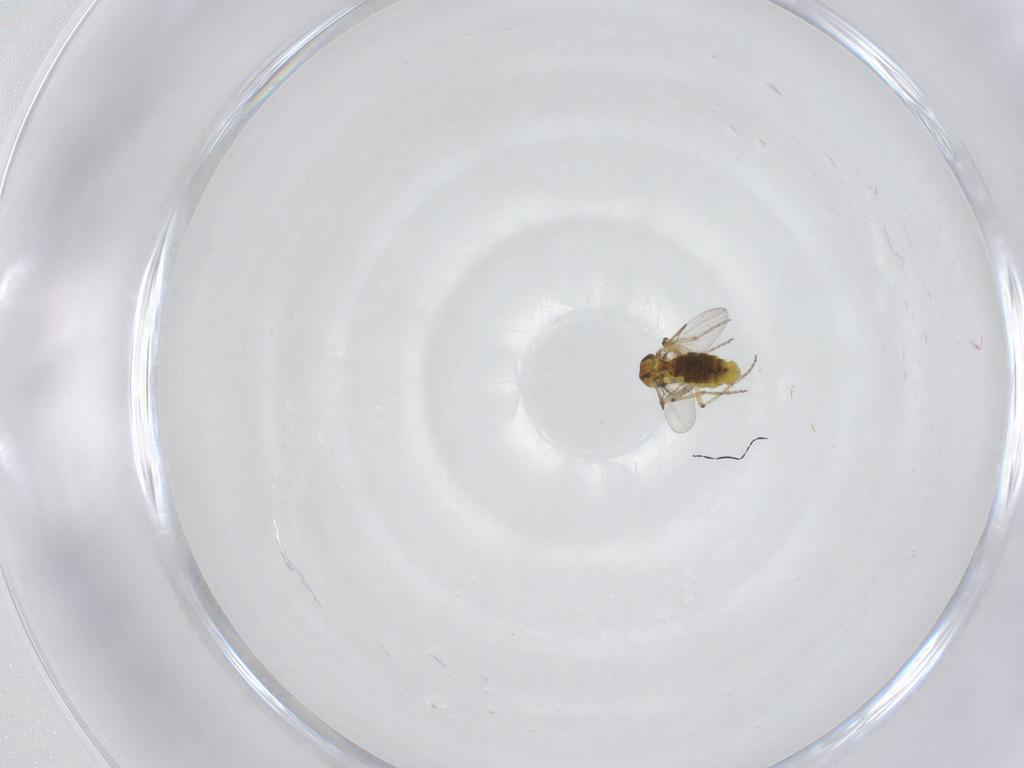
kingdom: Animalia
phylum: Arthropoda
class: Insecta
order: Diptera
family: Ceratopogonidae
